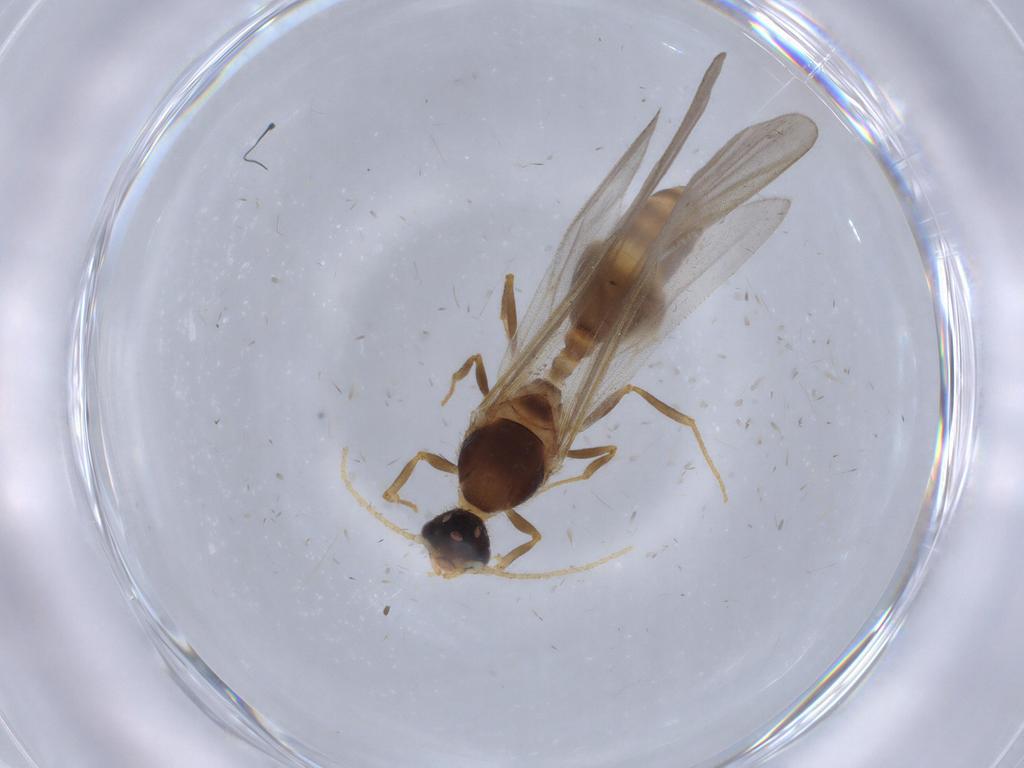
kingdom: Animalia
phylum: Arthropoda
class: Insecta
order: Hymenoptera
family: Formicidae
